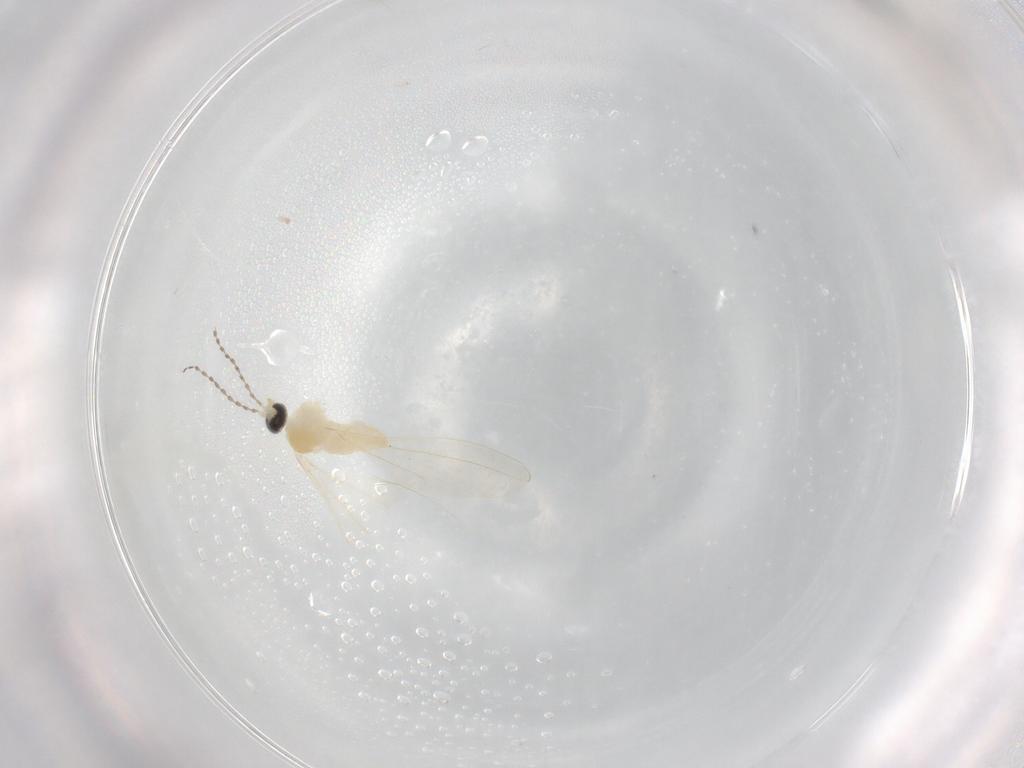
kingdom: Animalia
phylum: Arthropoda
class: Insecta
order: Diptera
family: Cecidomyiidae
